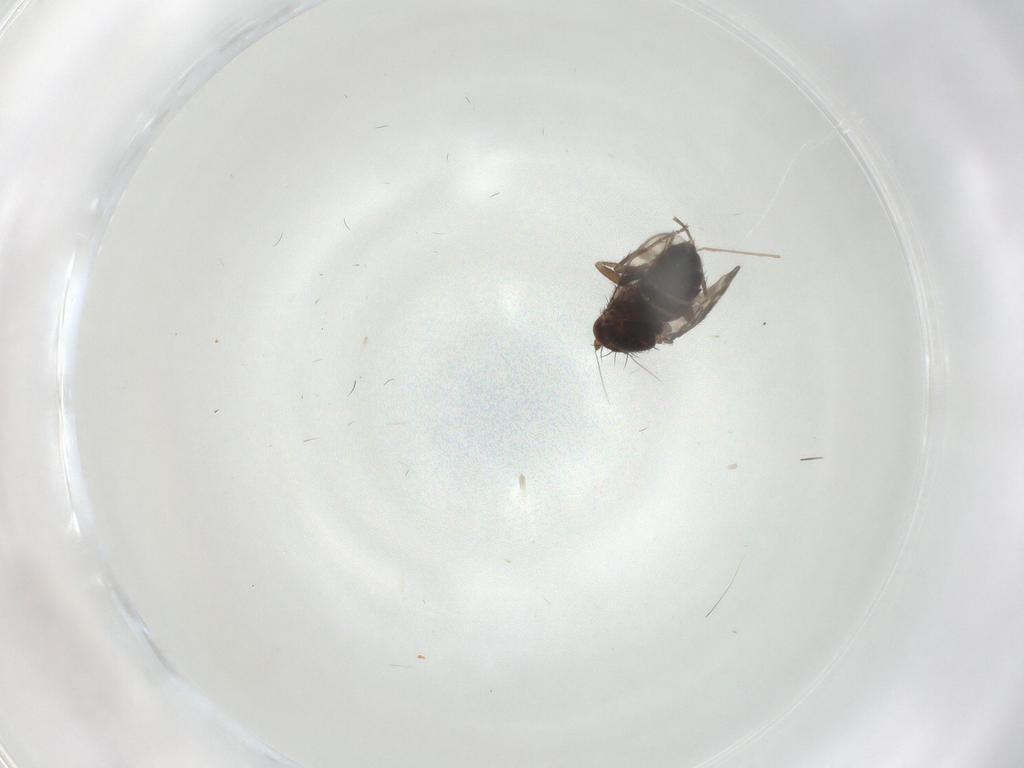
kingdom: Animalia
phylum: Arthropoda
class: Insecta
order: Diptera
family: Sphaeroceridae
